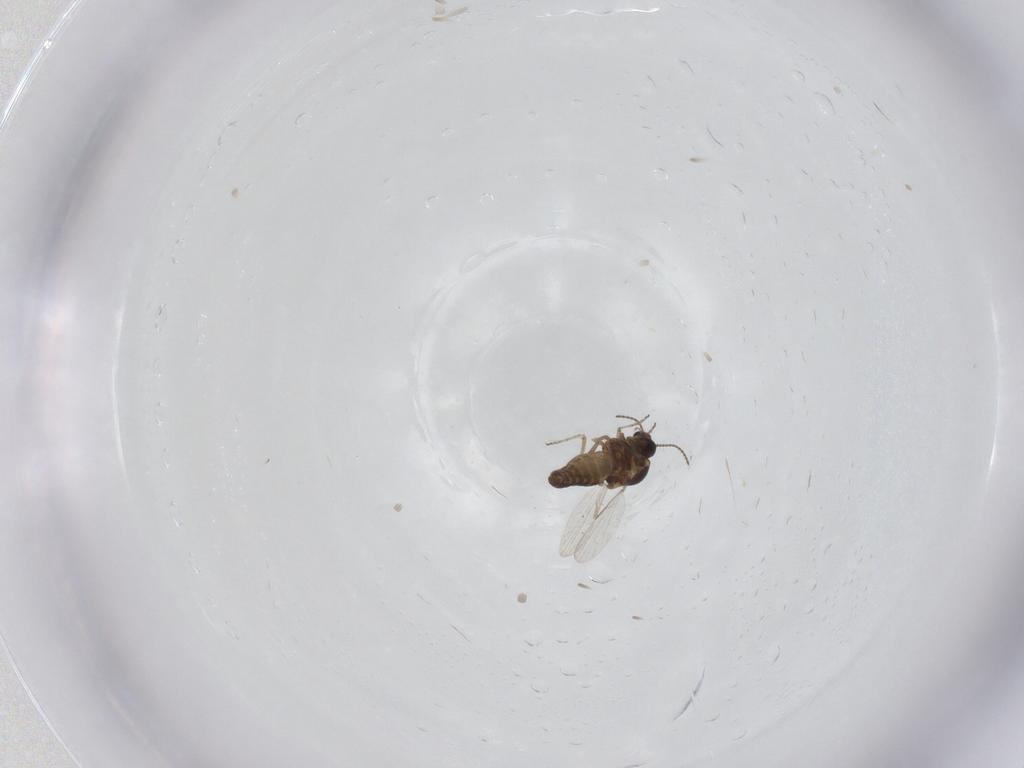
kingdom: Animalia
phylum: Arthropoda
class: Insecta
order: Diptera
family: Ceratopogonidae
